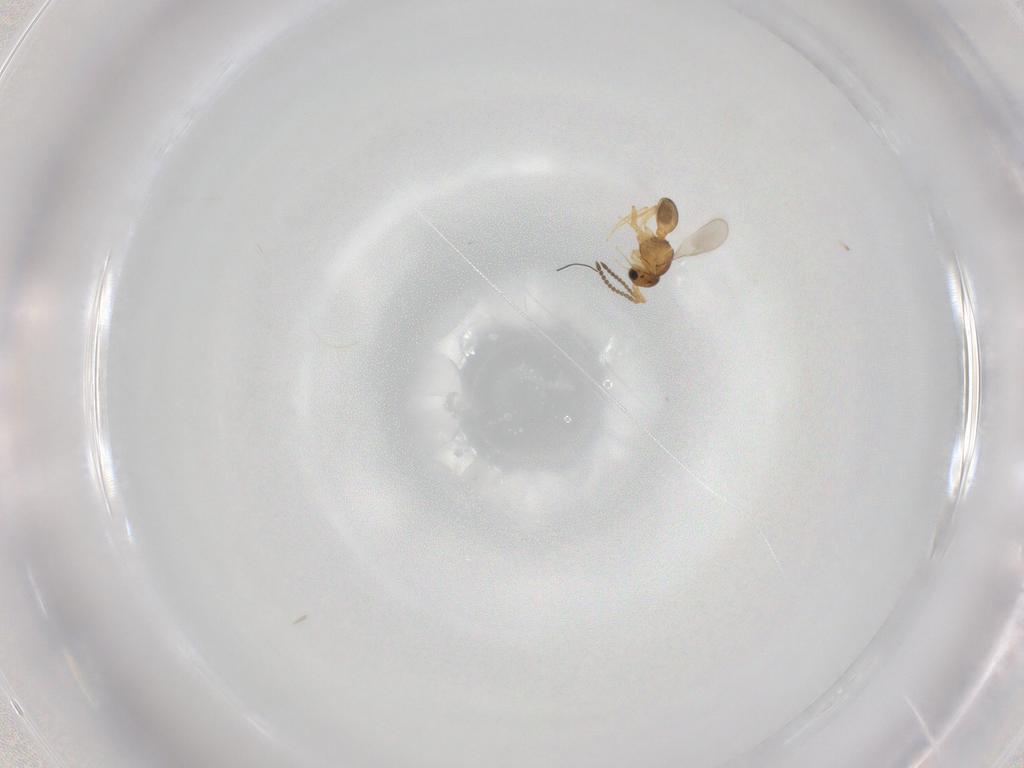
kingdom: Animalia
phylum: Arthropoda
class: Insecta
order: Hymenoptera
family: Scelionidae
